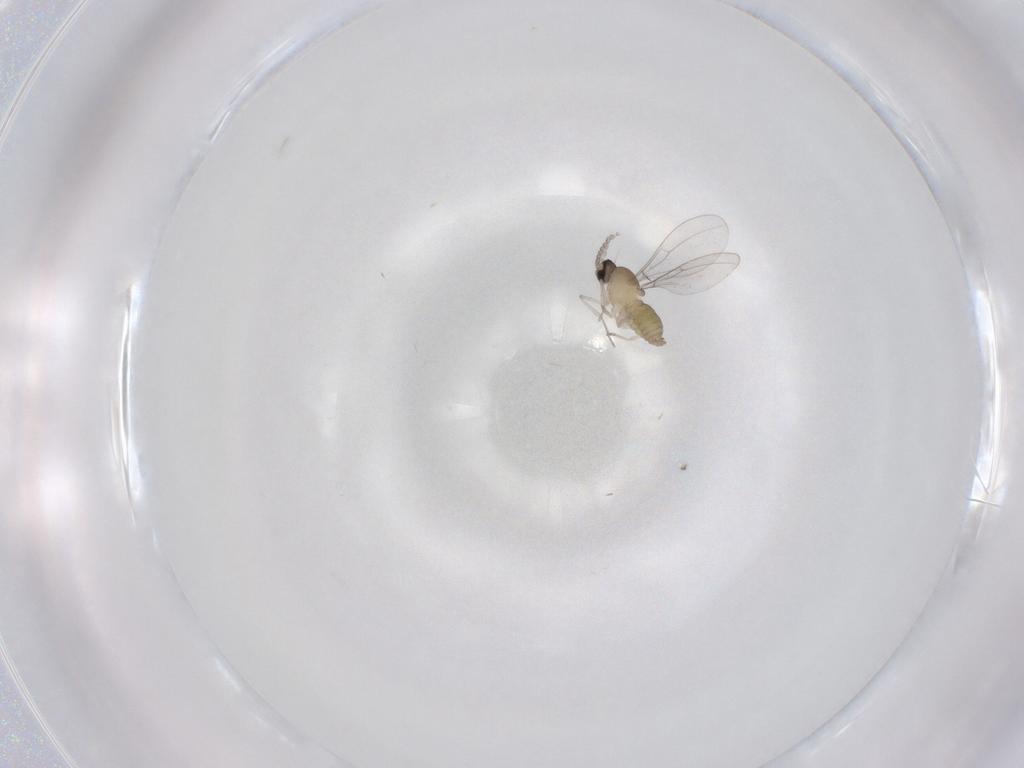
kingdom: Animalia
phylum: Arthropoda
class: Insecta
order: Diptera
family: Cecidomyiidae
